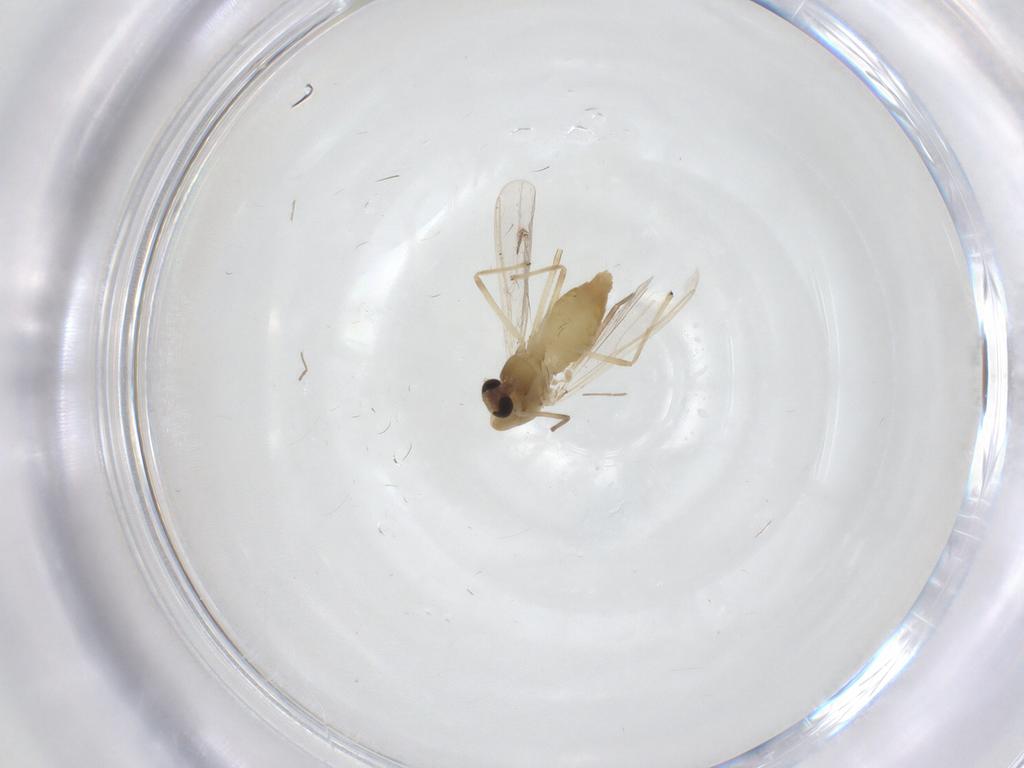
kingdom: Animalia
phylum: Arthropoda
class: Insecta
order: Diptera
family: Chironomidae
